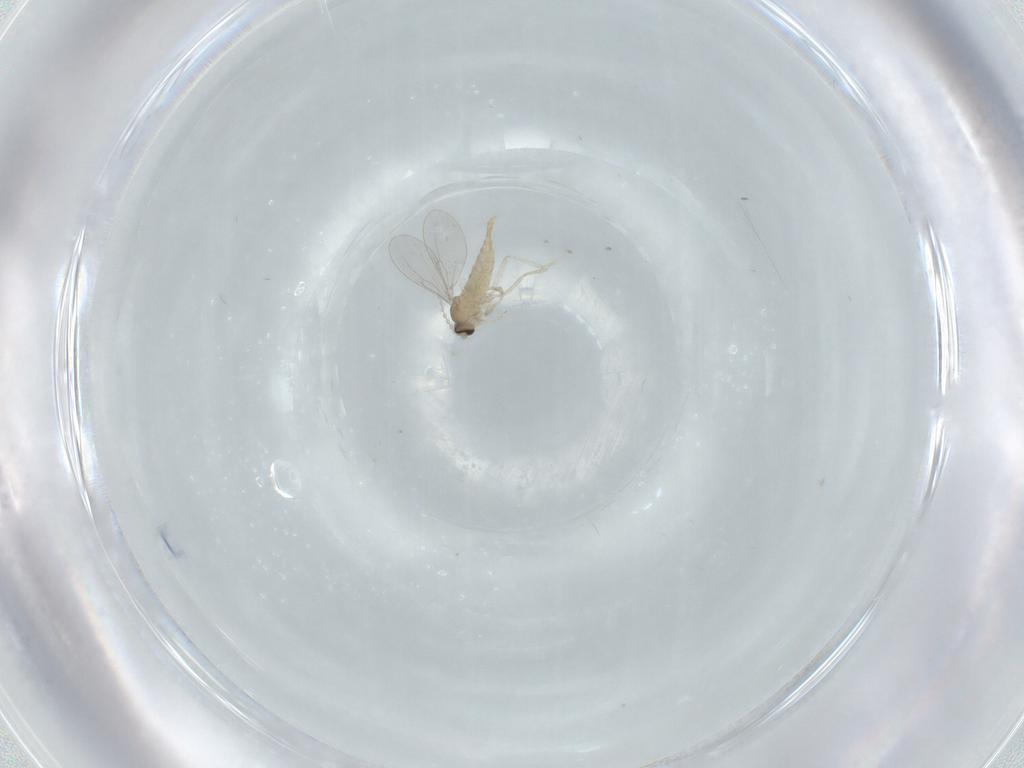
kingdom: Animalia
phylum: Arthropoda
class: Insecta
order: Diptera
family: Cecidomyiidae
